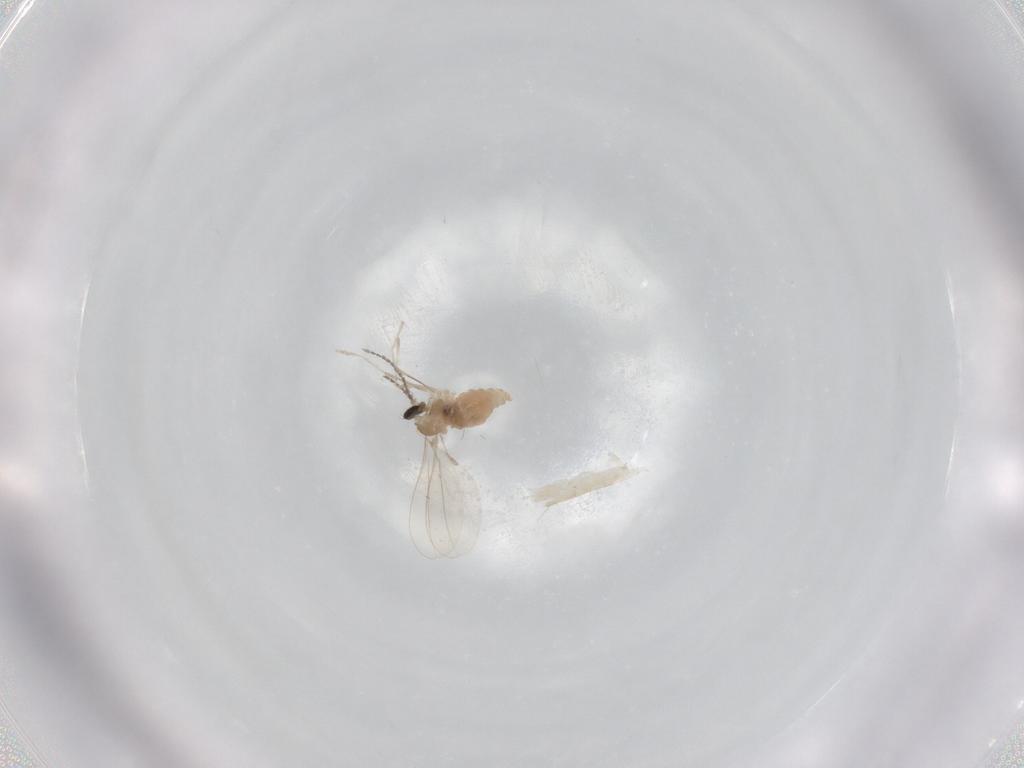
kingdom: Animalia
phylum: Arthropoda
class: Insecta
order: Diptera
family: Cecidomyiidae
